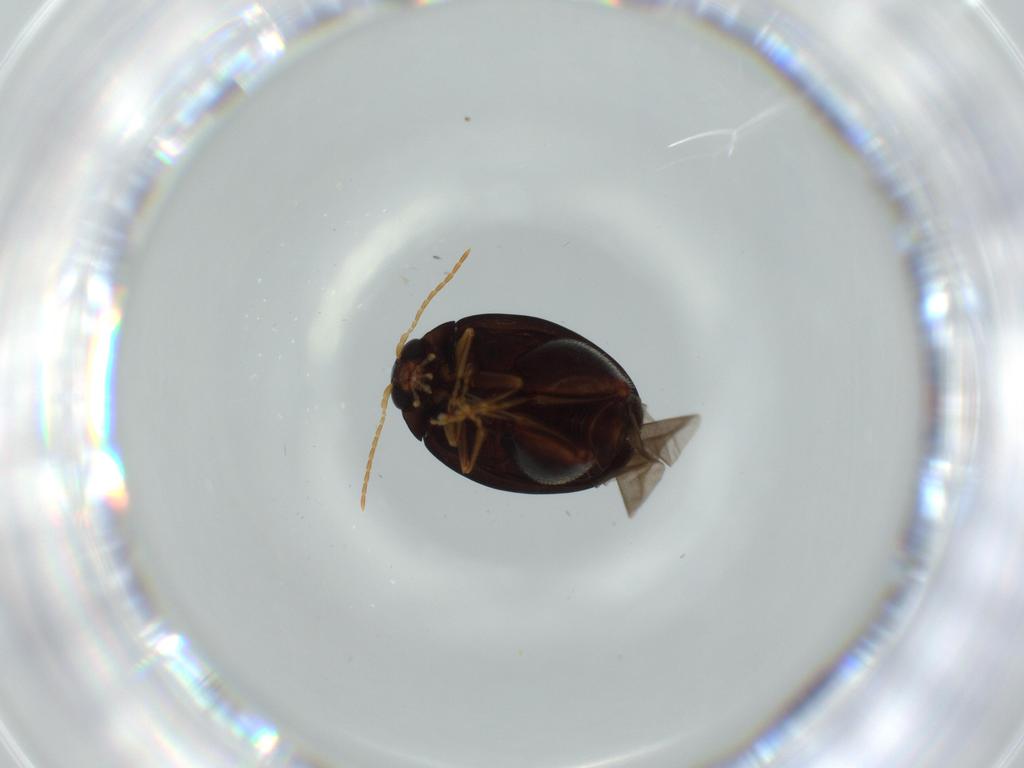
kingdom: Animalia
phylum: Arthropoda
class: Insecta
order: Coleoptera
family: Chrysomelidae
